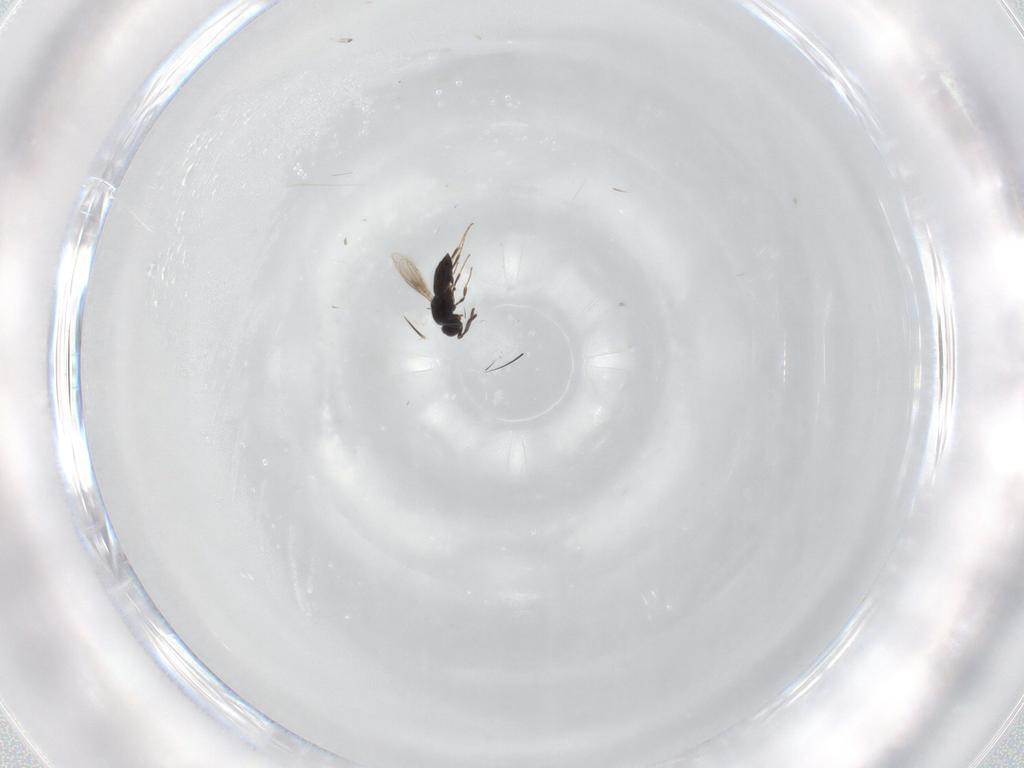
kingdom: Animalia
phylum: Arthropoda
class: Insecta
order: Hymenoptera
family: Scelionidae
